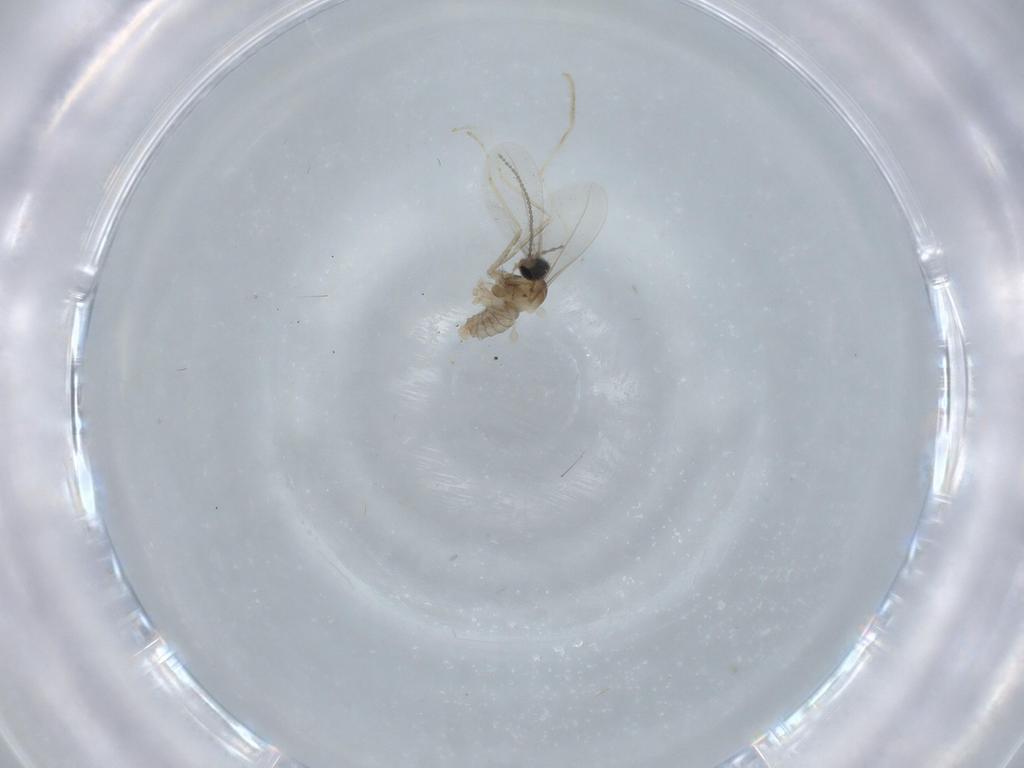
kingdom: Animalia
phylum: Arthropoda
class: Insecta
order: Diptera
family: Cecidomyiidae
